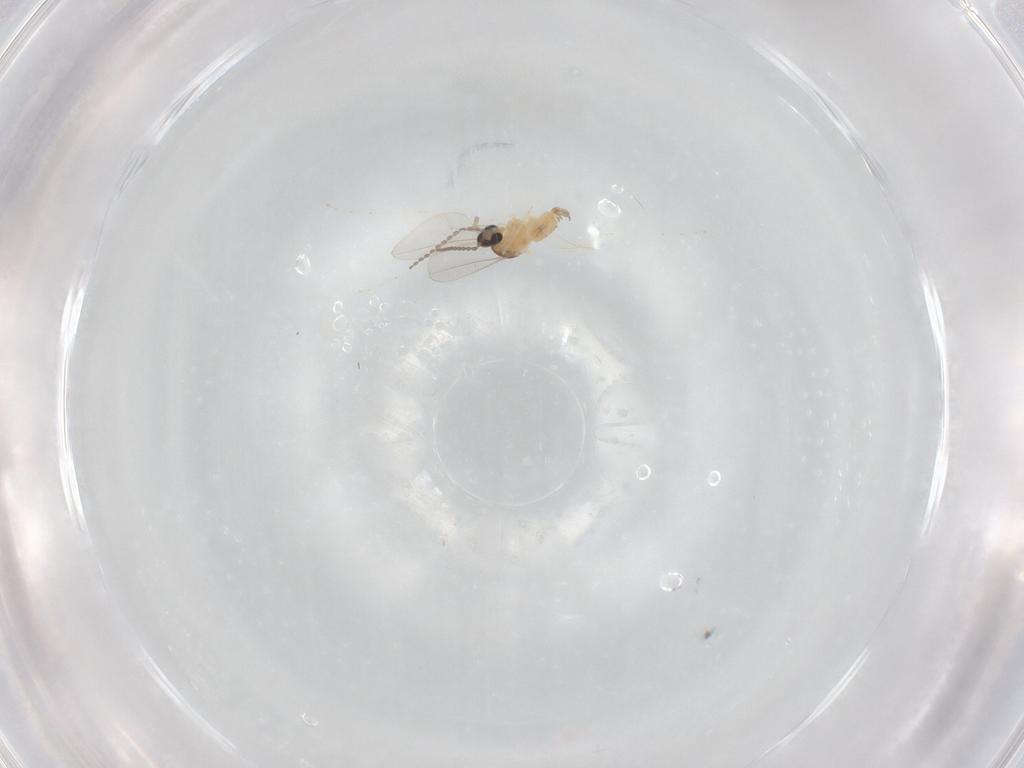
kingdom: Animalia
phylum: Arthropoda
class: Insecta
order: Diptera
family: Cecidomyiidae
